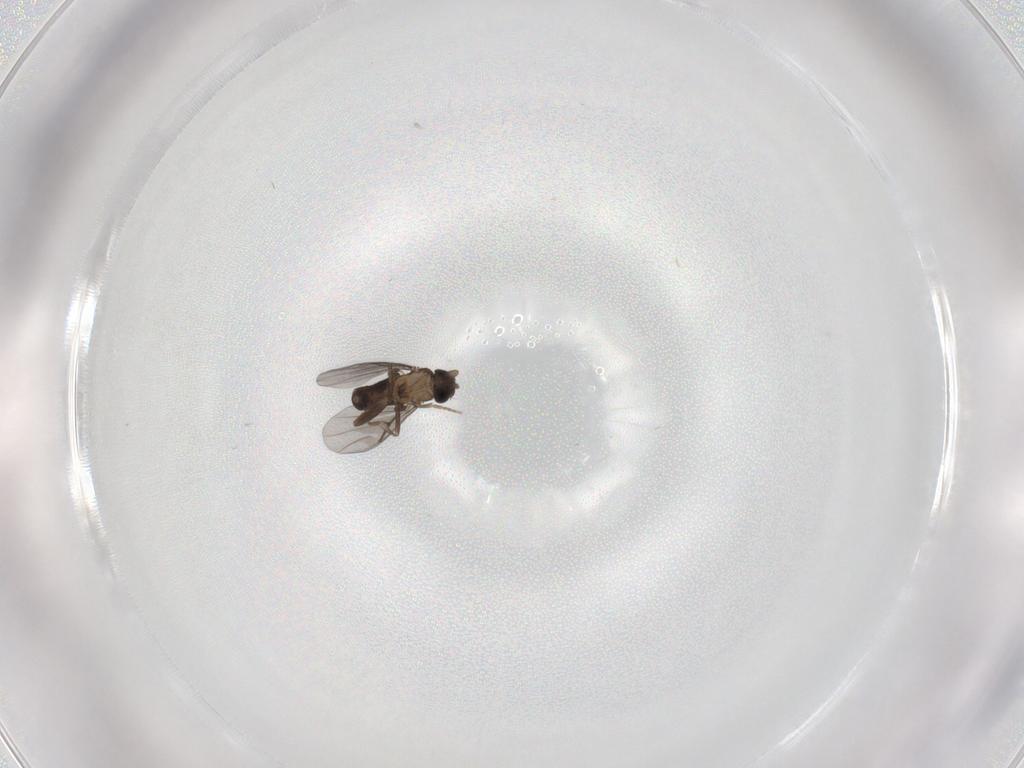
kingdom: Animalia
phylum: Arthropoda
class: Insecta
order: Diptera
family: Phoridae
